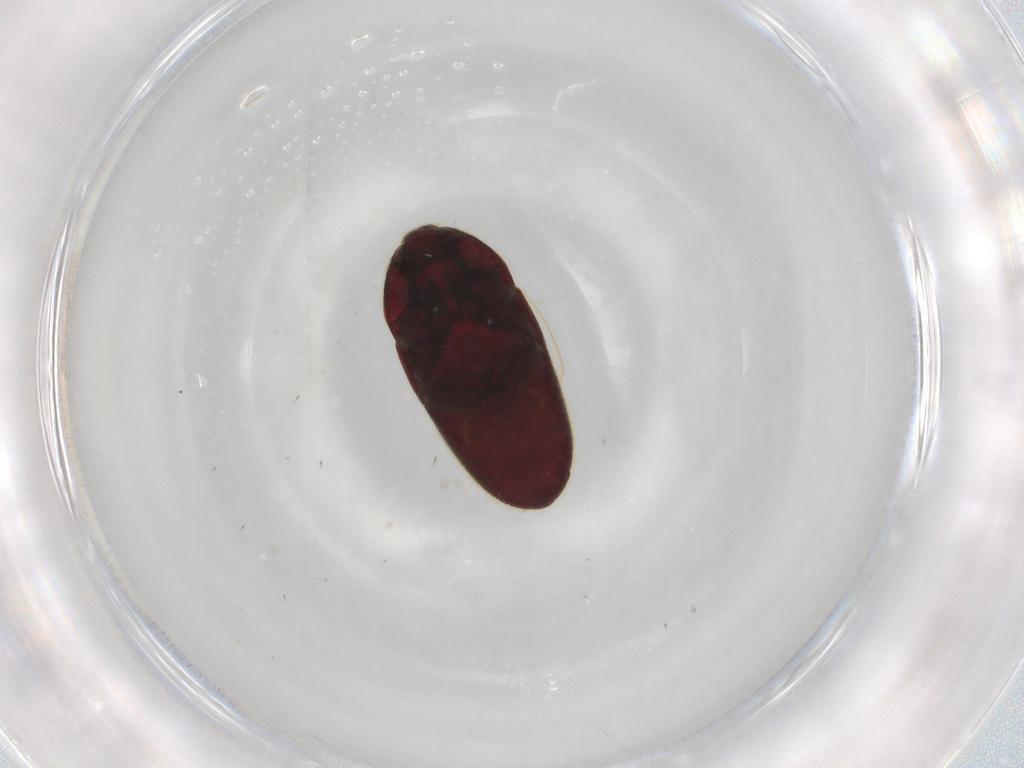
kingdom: Animalia
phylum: Arthropoda
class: Insecta
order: Coleoptera
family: Throscidae
